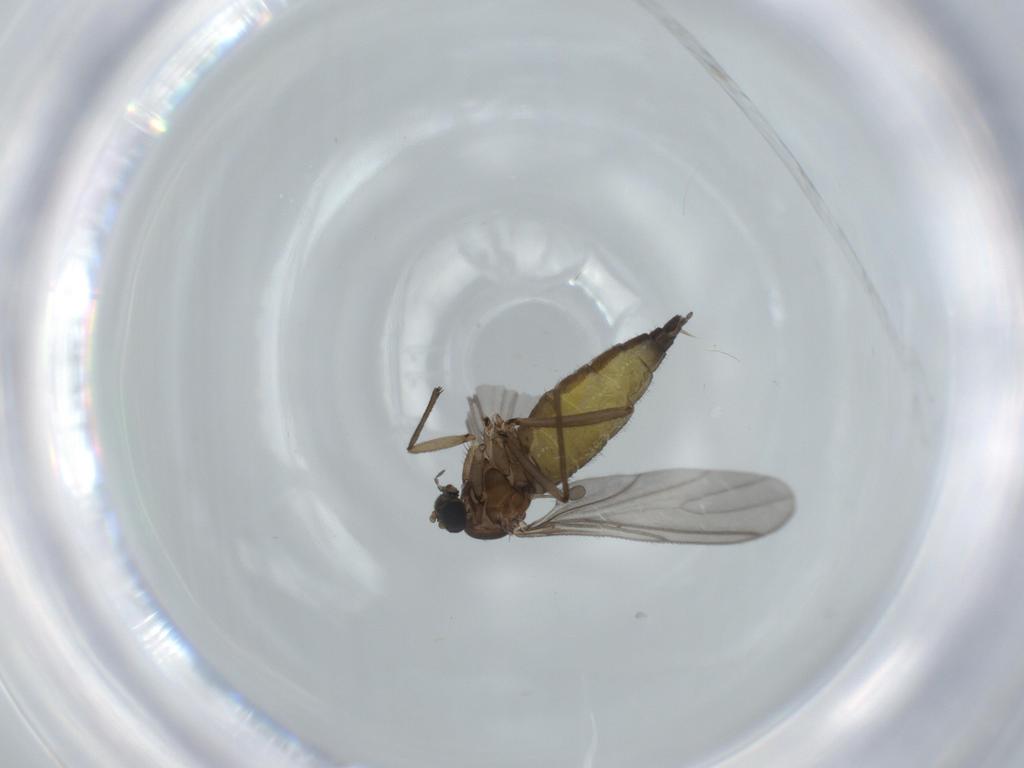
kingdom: Animalia
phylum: Arthropoda
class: Insecta
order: Diptera
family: Sciaridae
